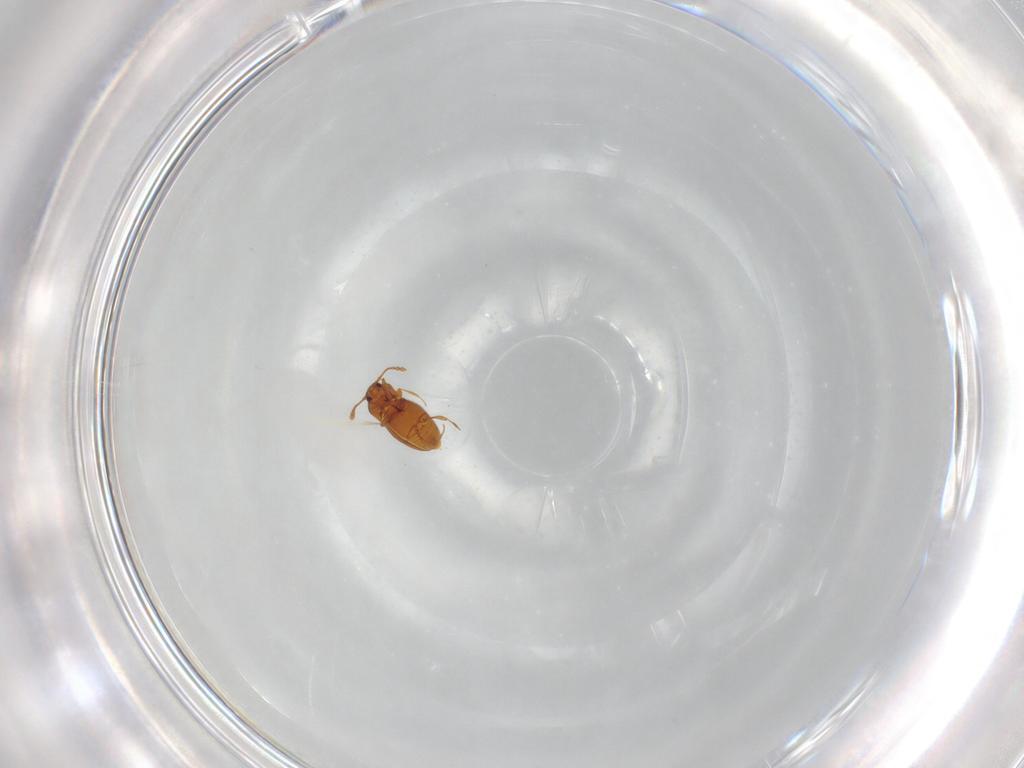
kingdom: Animalia
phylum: Arthropoda
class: Insecta
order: Coleoptera
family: Staphylinidae
